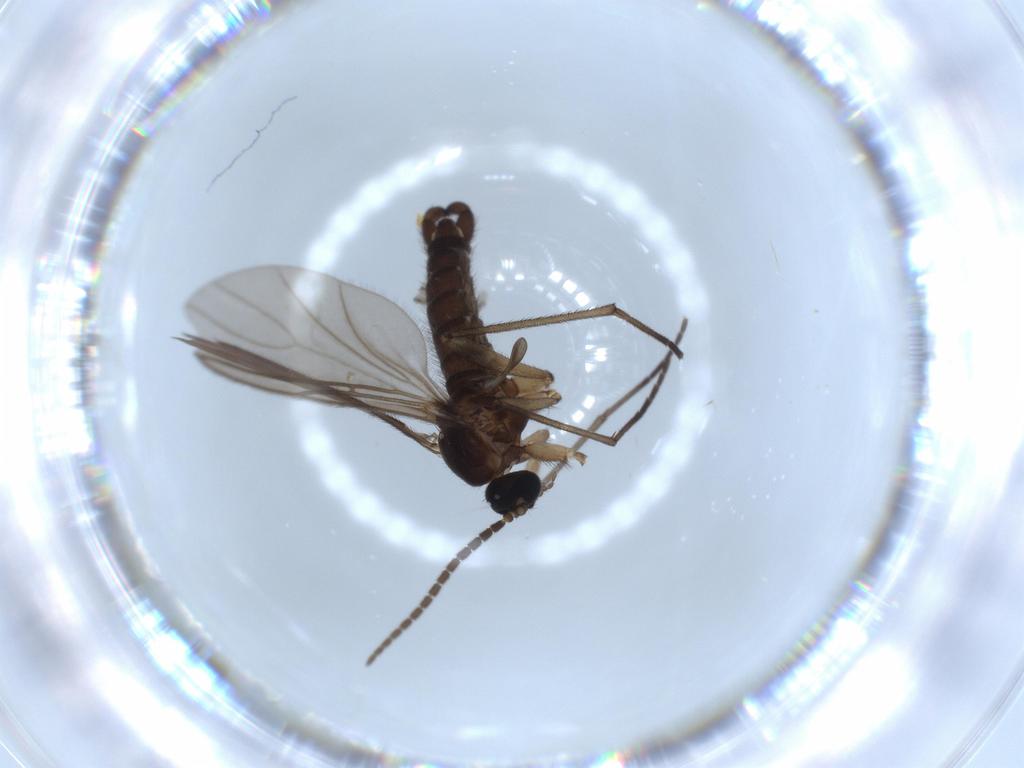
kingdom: Animalia
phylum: Arthropoda
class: Insecta
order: Diptera
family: Sciaridae
